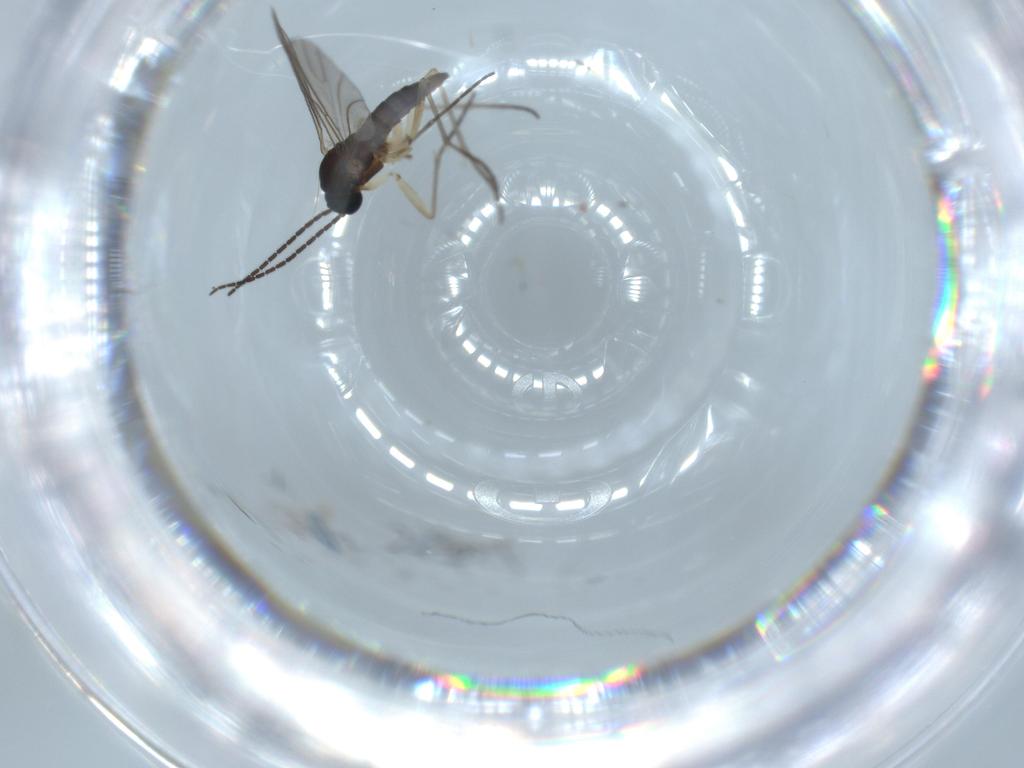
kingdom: Animalia
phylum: Arthropoda
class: Insecta
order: Diptera
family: Sciaridae
